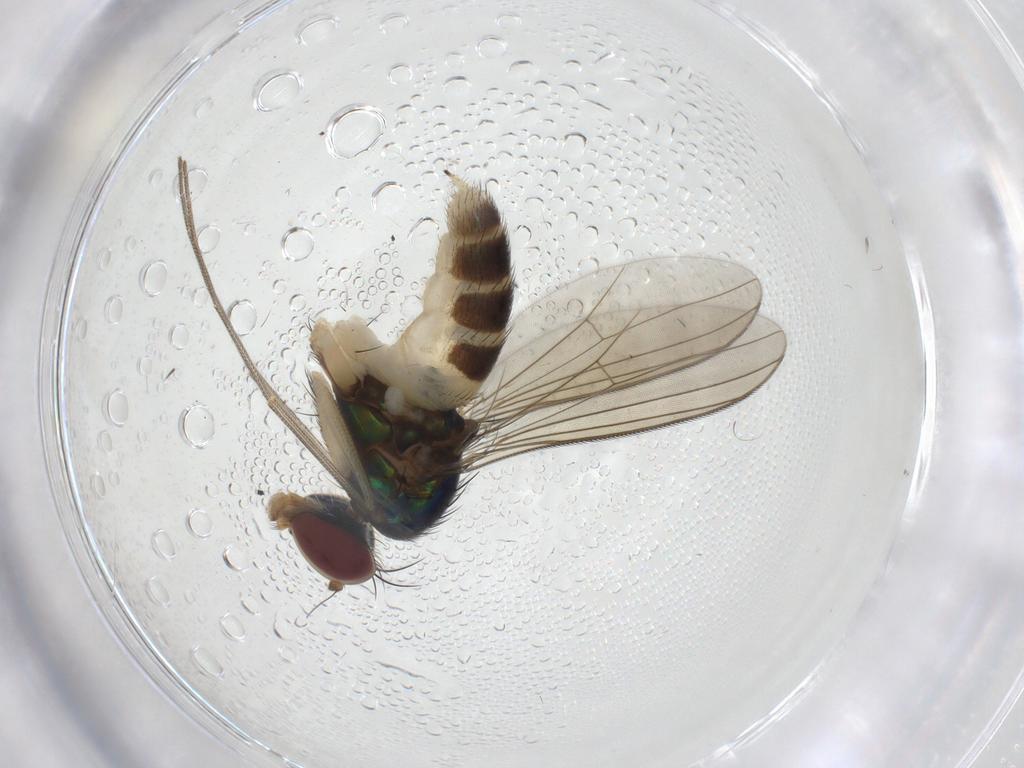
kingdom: Animalia
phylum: Arthropoda
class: Insecta
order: Diptera
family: Dolichopodidae
